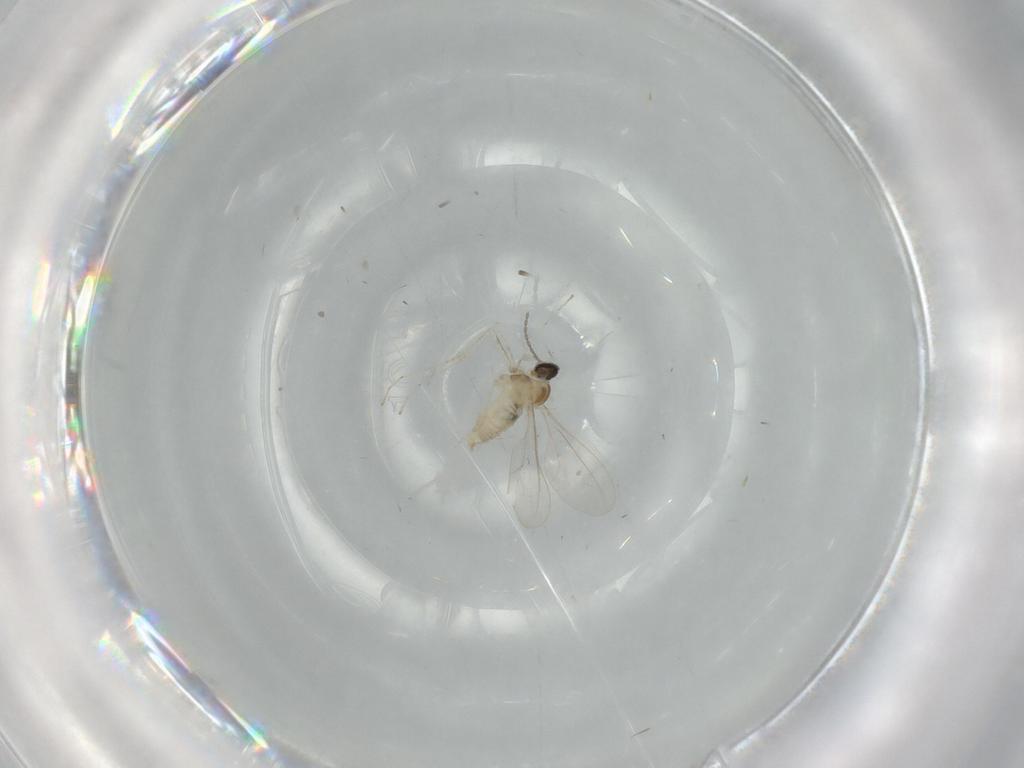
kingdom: Animalia
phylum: Arthropoda
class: Insecta
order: Diptera
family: Cecidomyiidae
